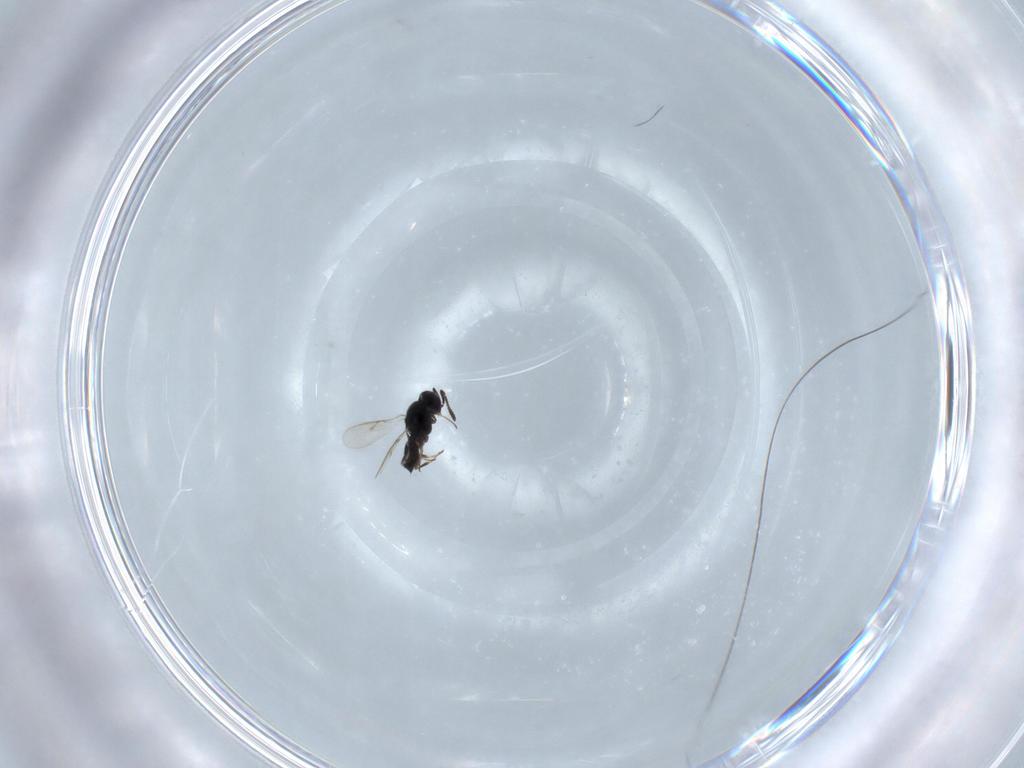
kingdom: Animalia
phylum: Arthropoda
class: Insecta
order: Hymenoptera
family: Scelionidae
